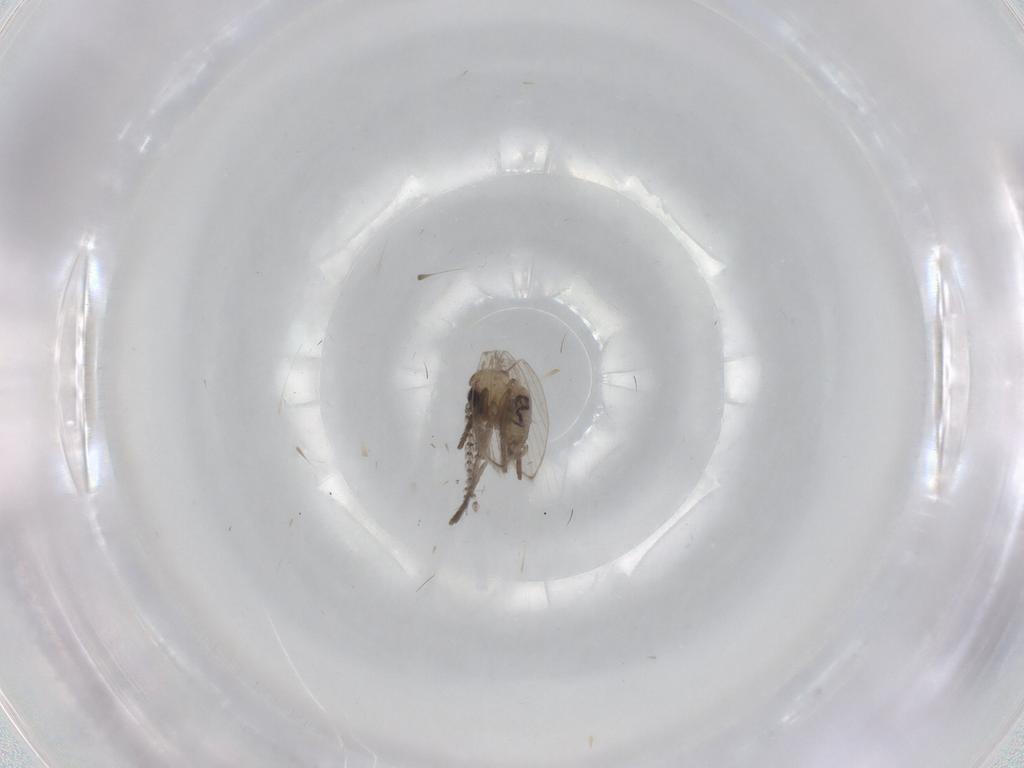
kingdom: Animalia
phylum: Arthropoda
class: Insecta
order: Diptera
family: Psychodidae
